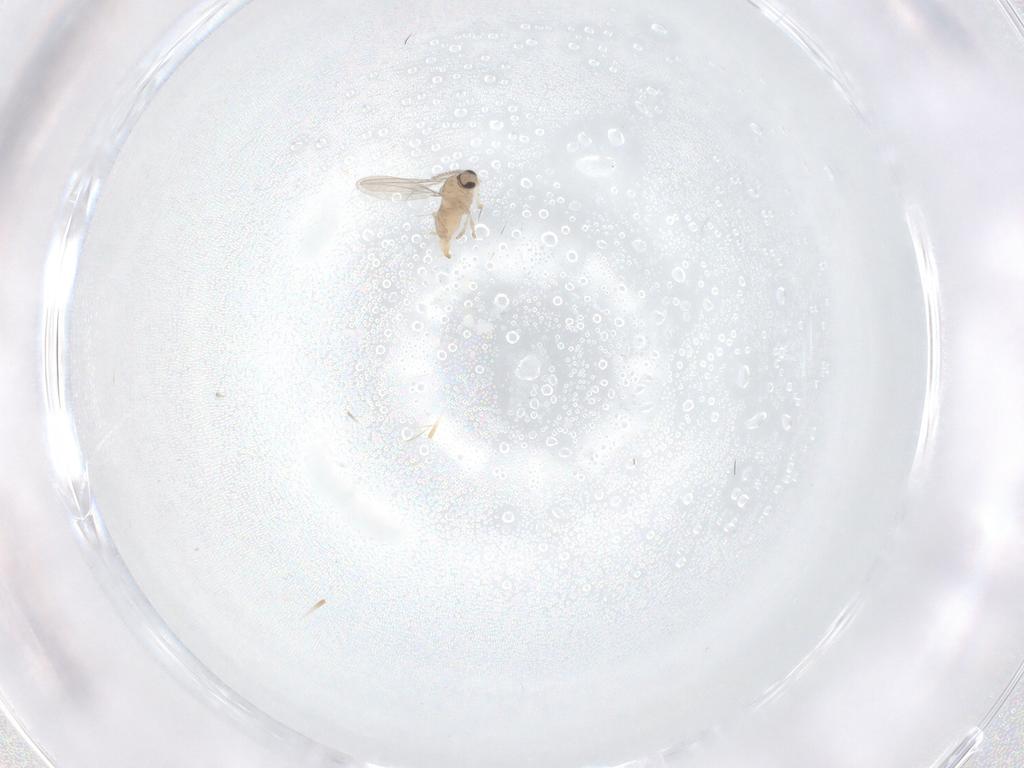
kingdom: Animalia
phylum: Arthropoda
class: Insecta
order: Diptera
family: Cecidomyiidae
